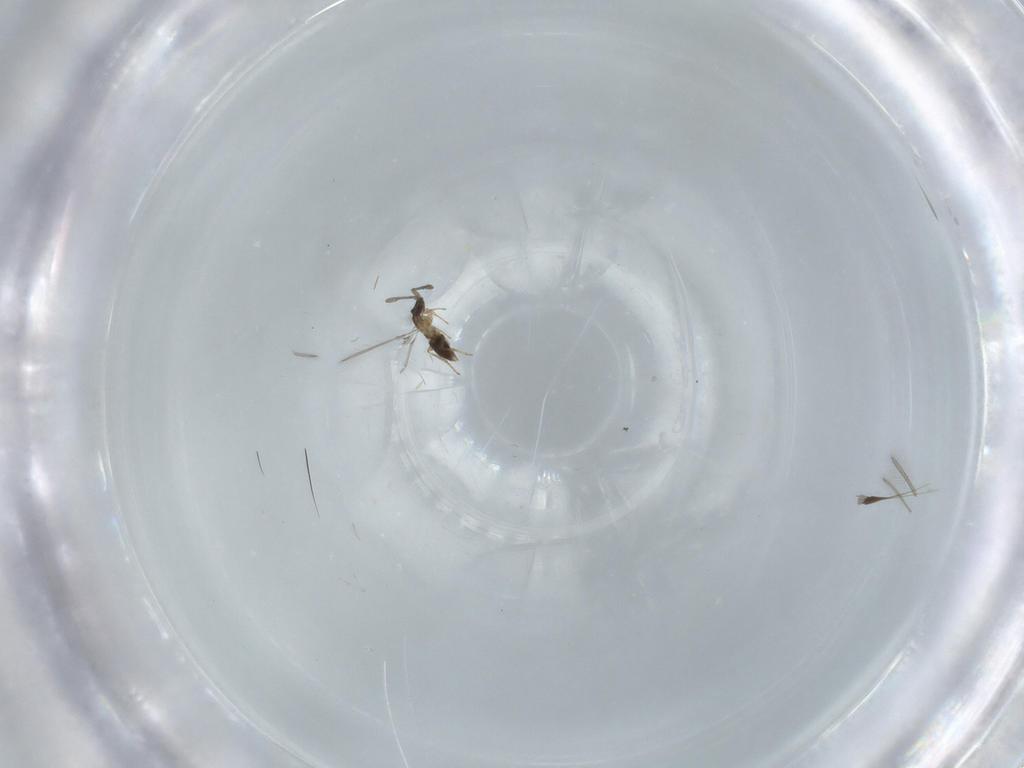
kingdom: Animalia
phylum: Arthropoda
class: Insecta
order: Hymenoptera
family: Mymaridae
